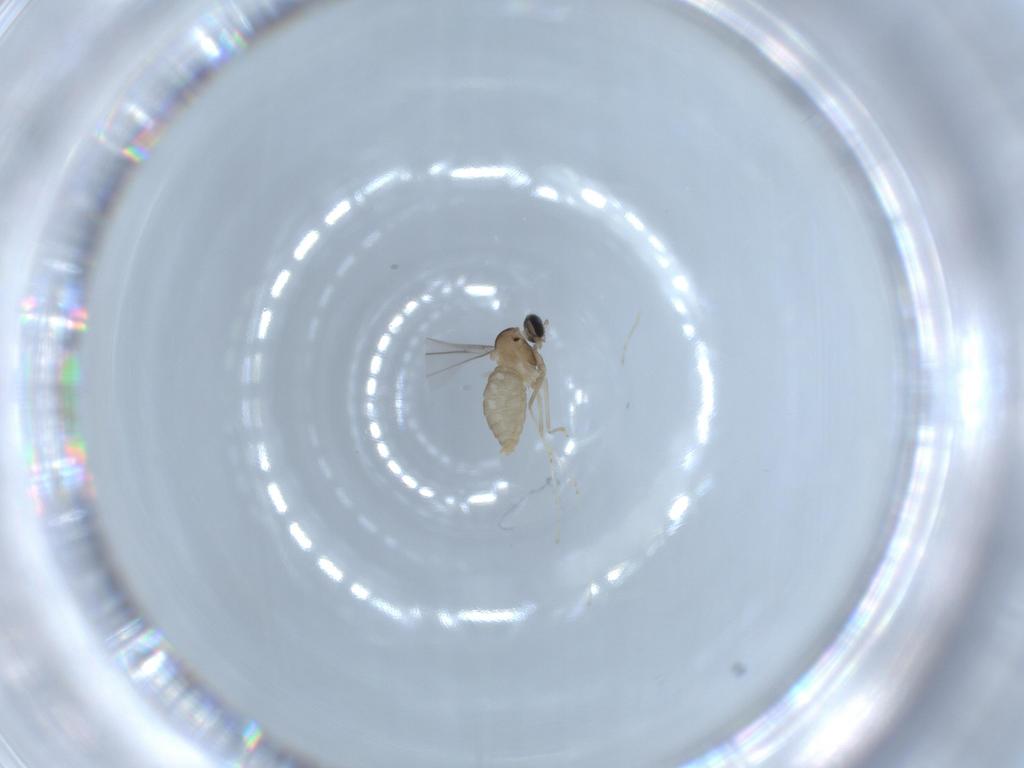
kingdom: Animalia
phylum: Arthropoda
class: Insecta
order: Diptera
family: Cecidomyiidae
